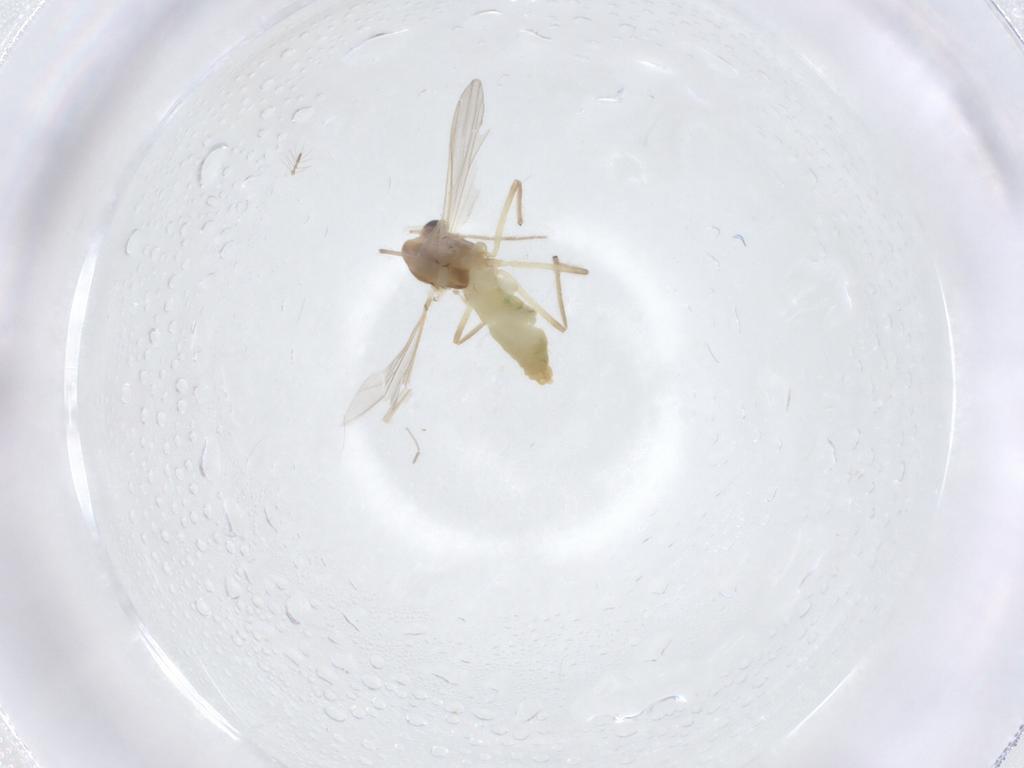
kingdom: Animalia
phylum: Arthropoda
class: Insecta
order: Diptera
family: Chironomidae
